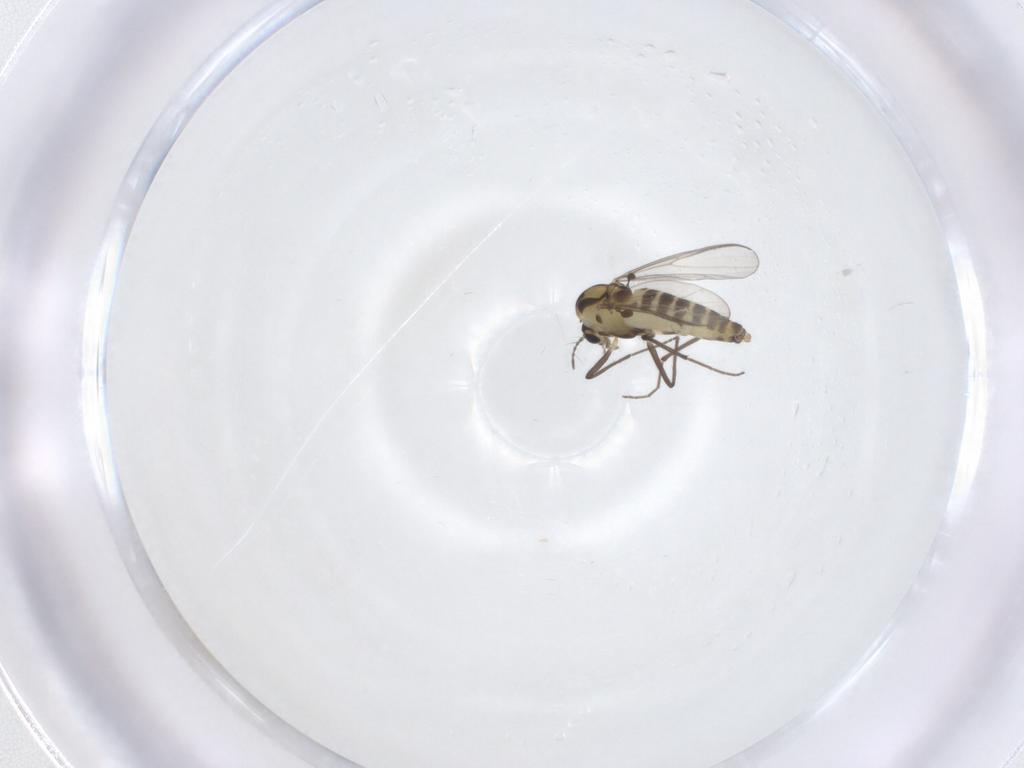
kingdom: Animalia
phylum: Arthropoda
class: Insecta
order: Diptera
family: Chironomidae
